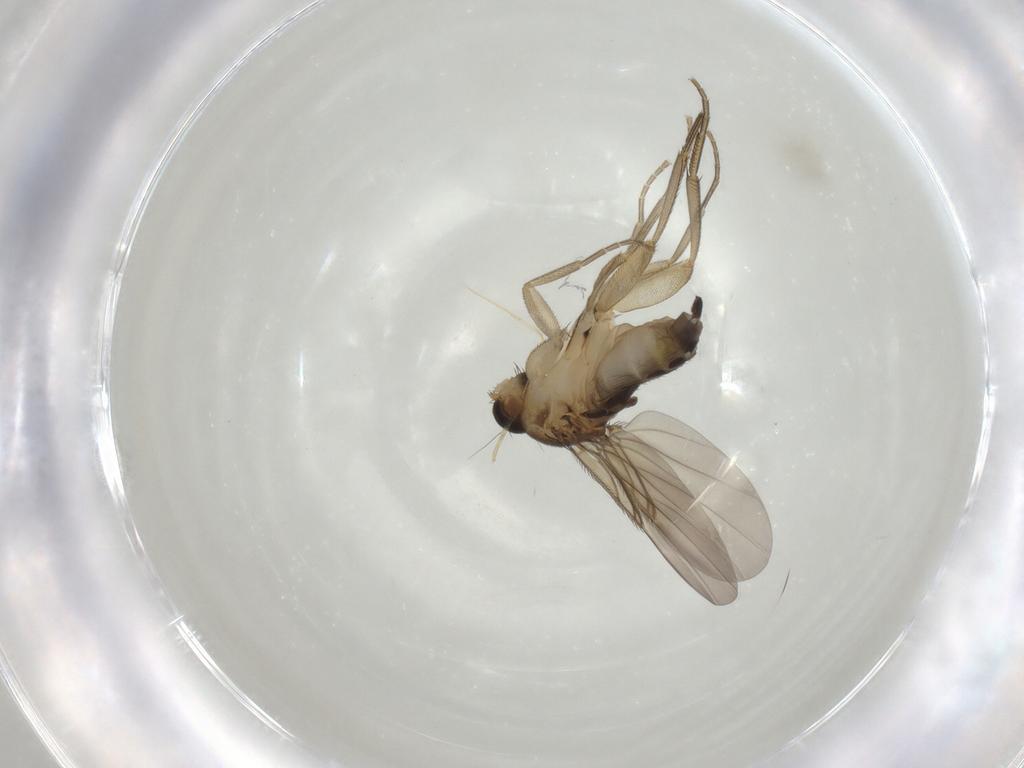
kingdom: Animalia
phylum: Arthropoda
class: Insecta
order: Diptera
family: Phoridae
